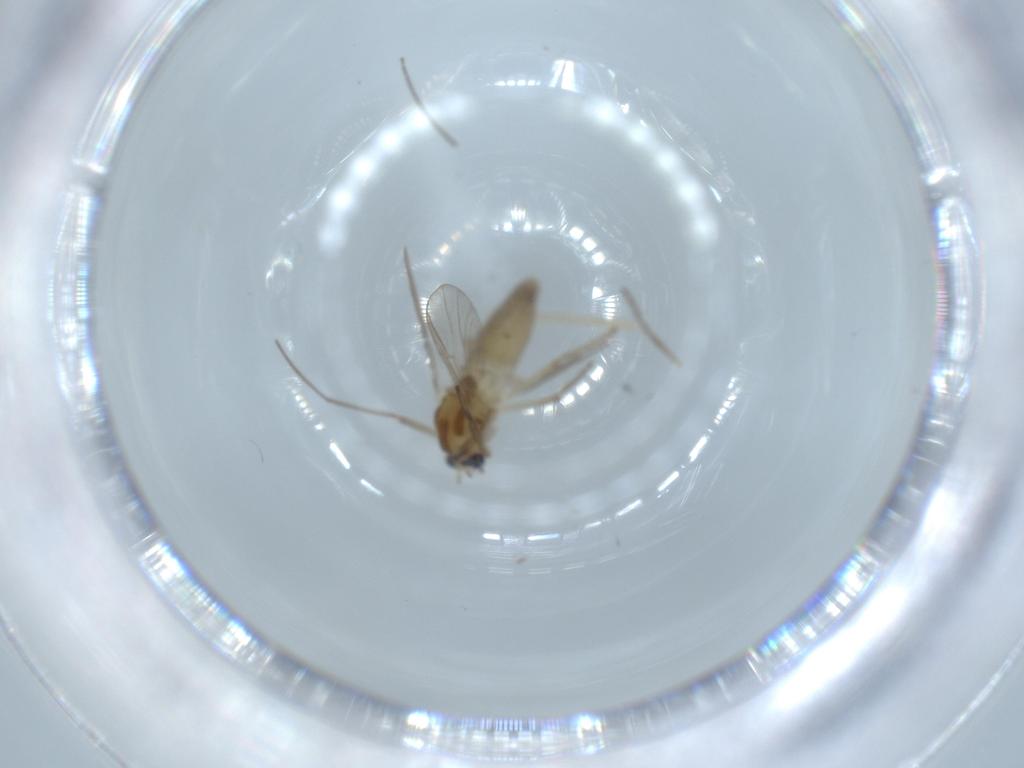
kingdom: Animalia
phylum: Arthropoda
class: Insecta
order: Diptera
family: Chironomidae
